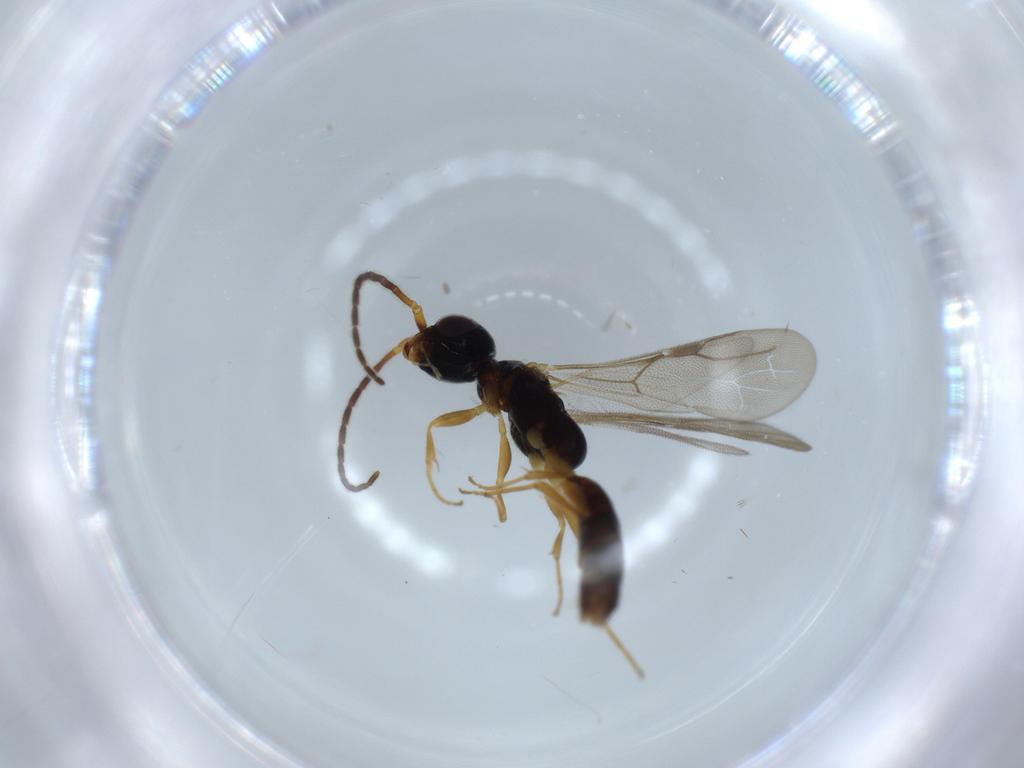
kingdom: Animalia
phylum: Arthropoda
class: Insecta
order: Hymenoptera
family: Bethylidae
